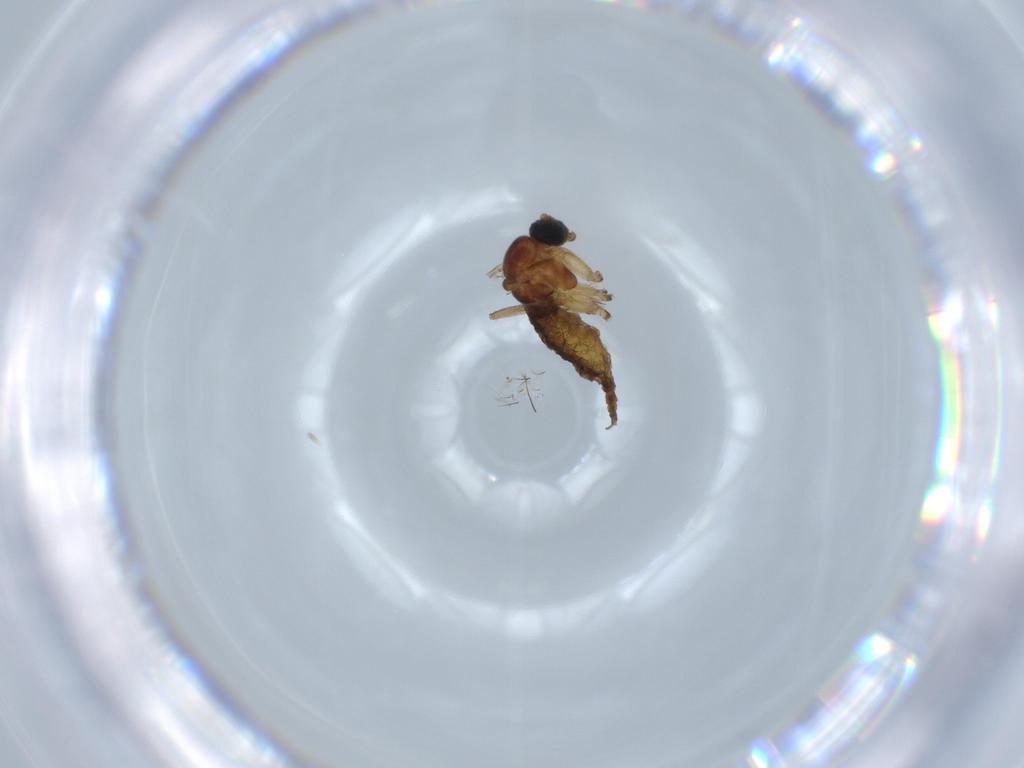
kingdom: Animalia
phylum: Arthropoda
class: Insecta
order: Diptera
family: Sciaridae
